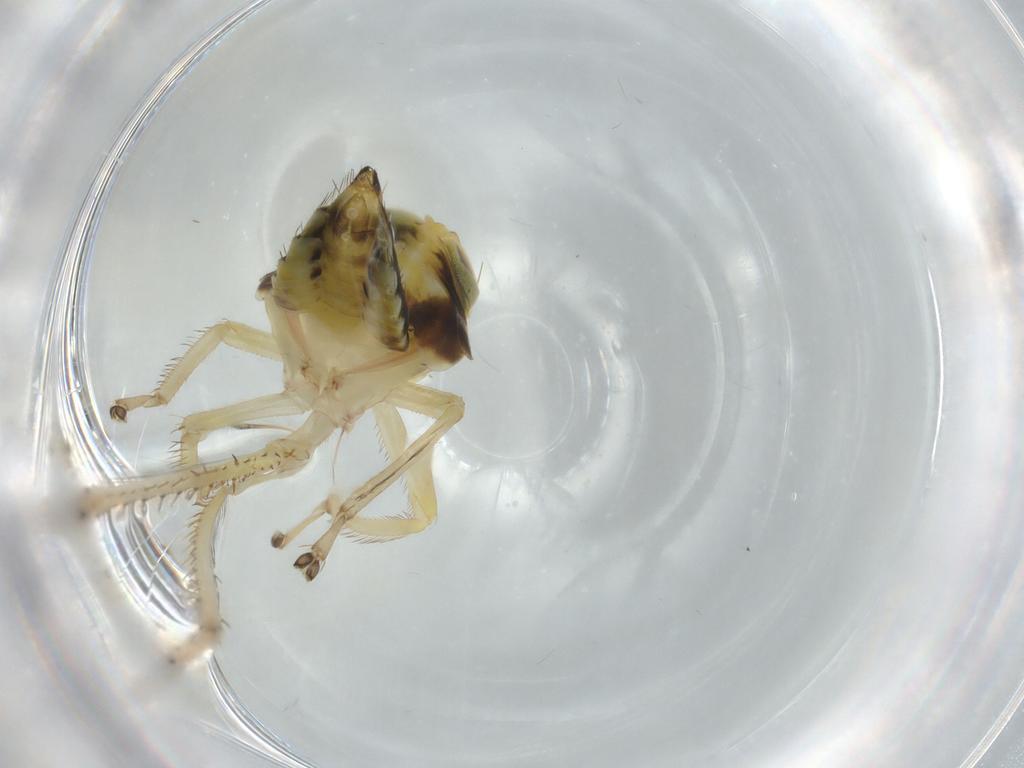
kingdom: Animalia
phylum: Arthropoda
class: Insecta
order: Hemiptera
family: Cicadellidae
